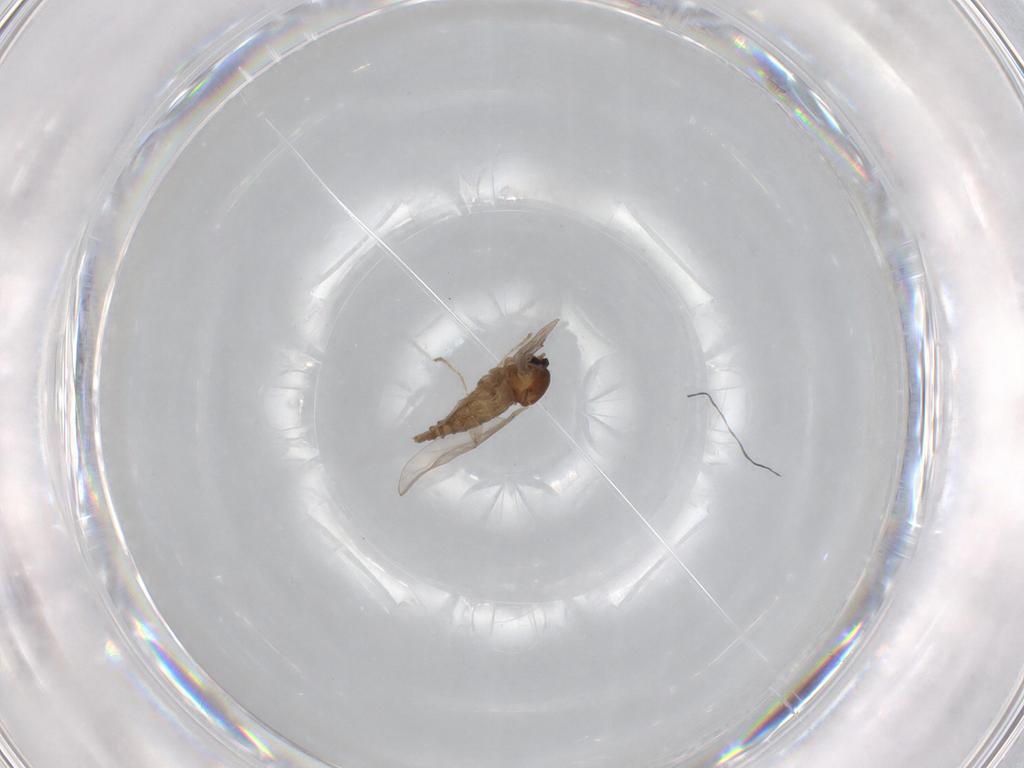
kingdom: Animalia
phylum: Arthropoda
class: Insecta
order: Diptera
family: Cecidomyiidae
